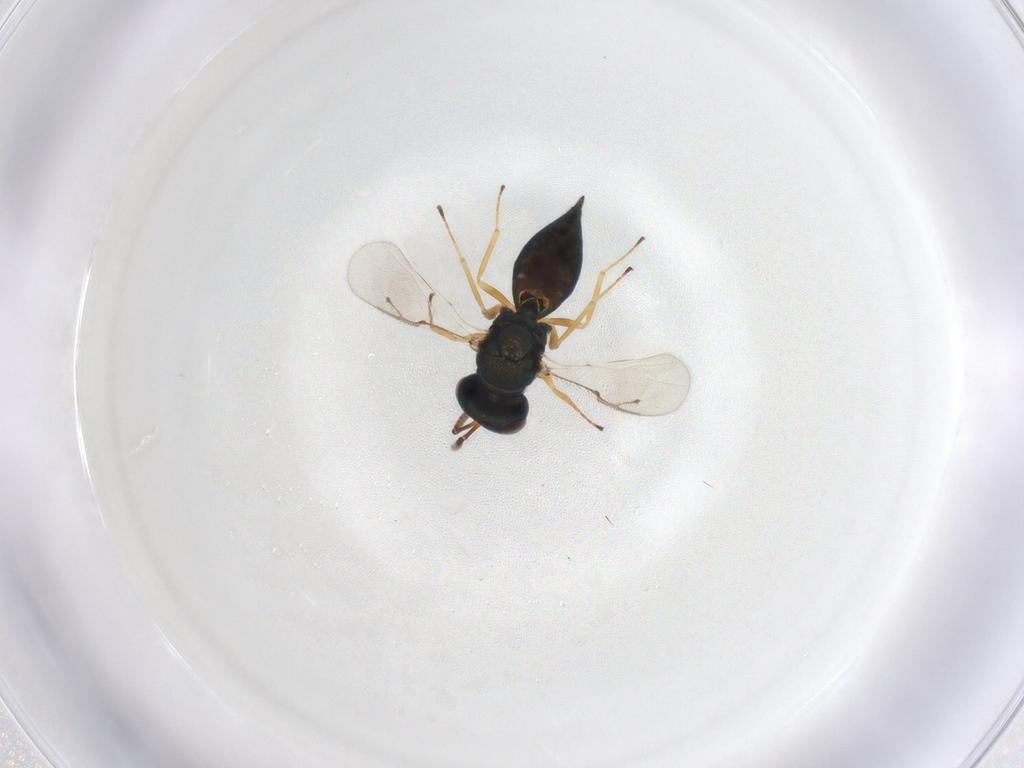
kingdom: Animalia
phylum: Arthropoda
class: Insecta
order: Hymenoptera
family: Pteromalidae
